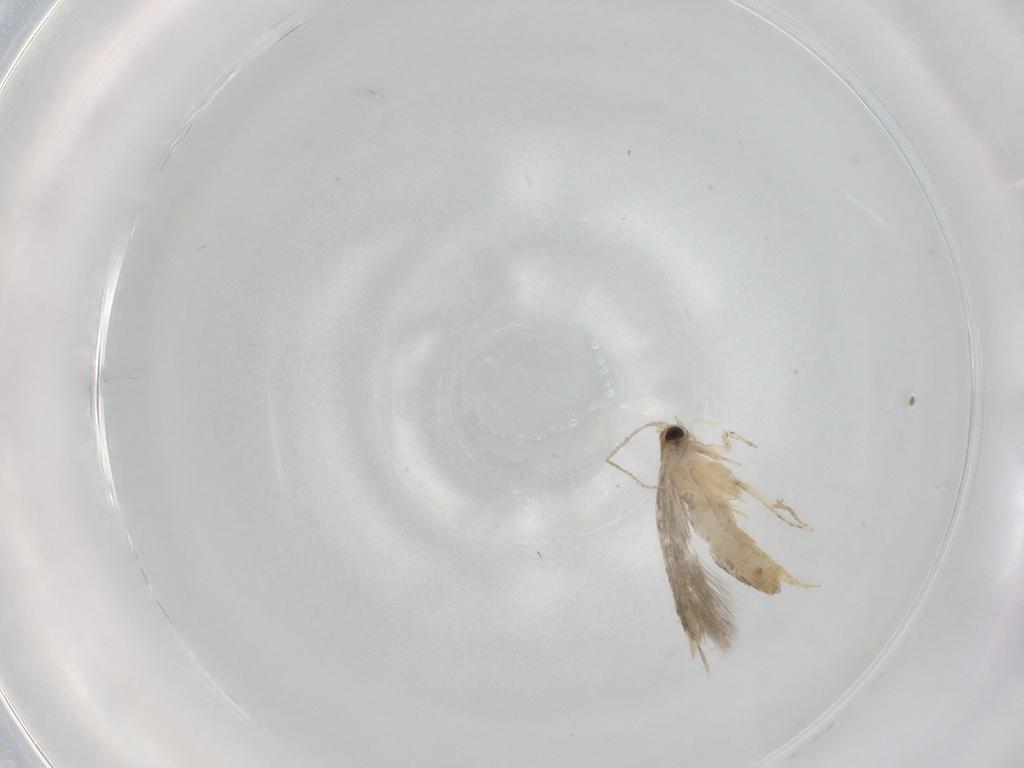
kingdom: Animalia
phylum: Arthropoda
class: Insecta
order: Lepidoptera
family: Tineidae
